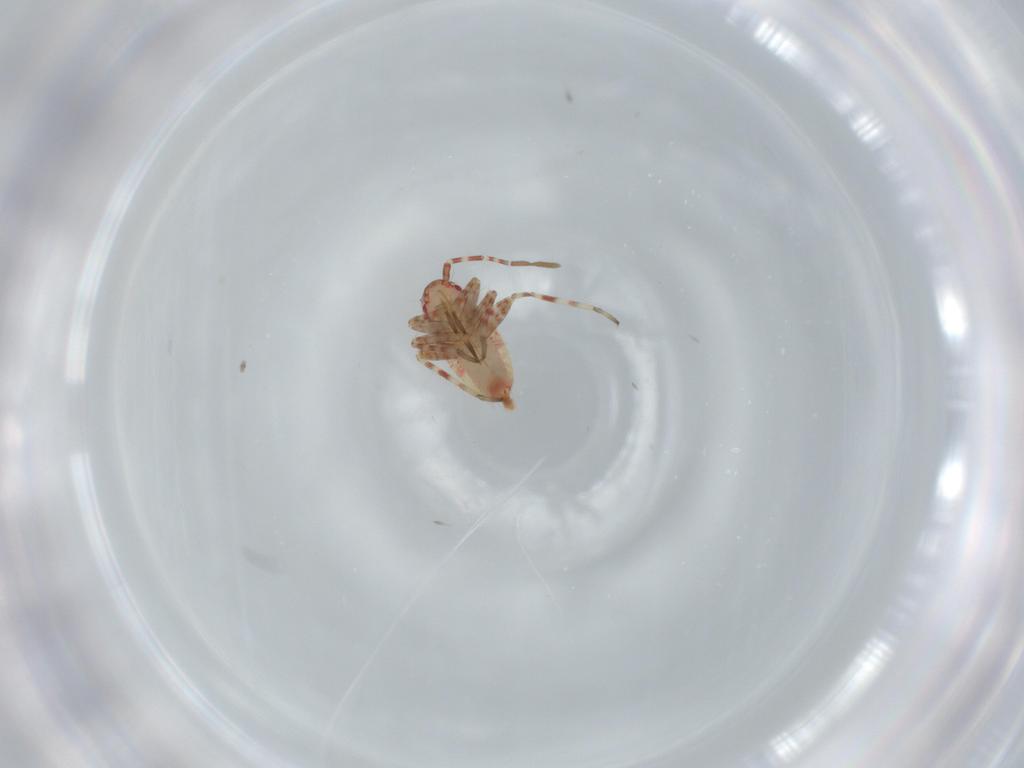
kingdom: Animalia
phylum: Arthropoda
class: Insecta
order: Hemiptera
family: Miridae
